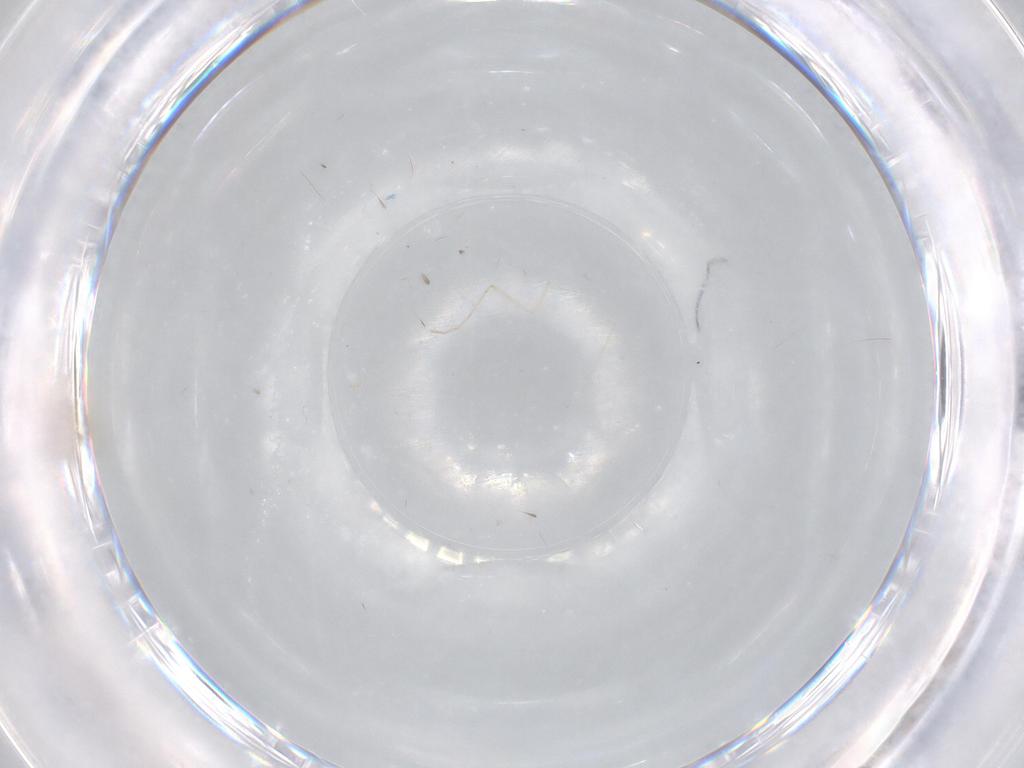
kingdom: Animalia
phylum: Arthropoda
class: Insecta
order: Diptera
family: Cecidomyiidae
